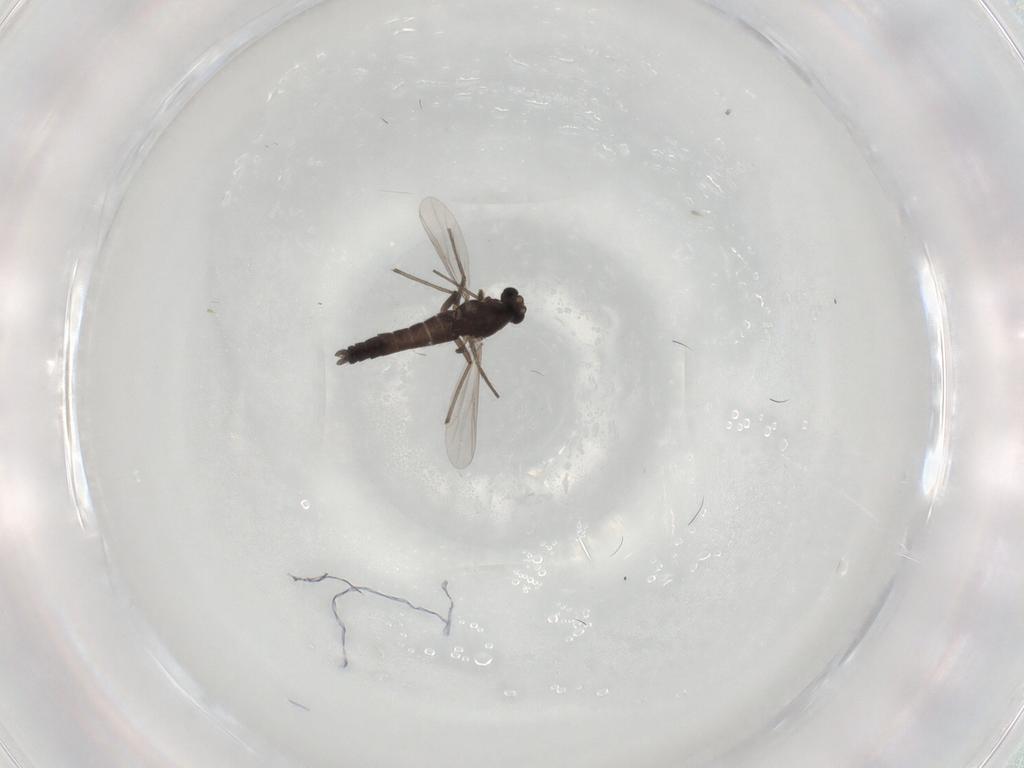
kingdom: Animalia
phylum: Arthropoda
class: Insecta
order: Diptera
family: Chironomidae
